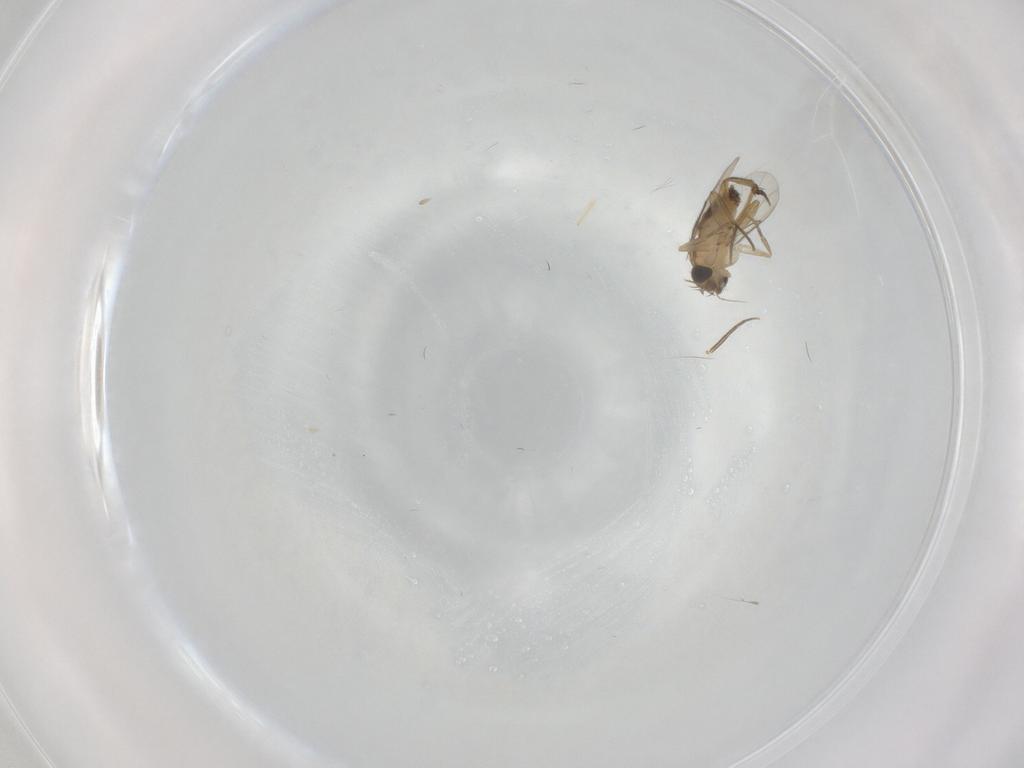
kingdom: Animalia
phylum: Arthropoda
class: Insecta
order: Diptera
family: Phoridae
